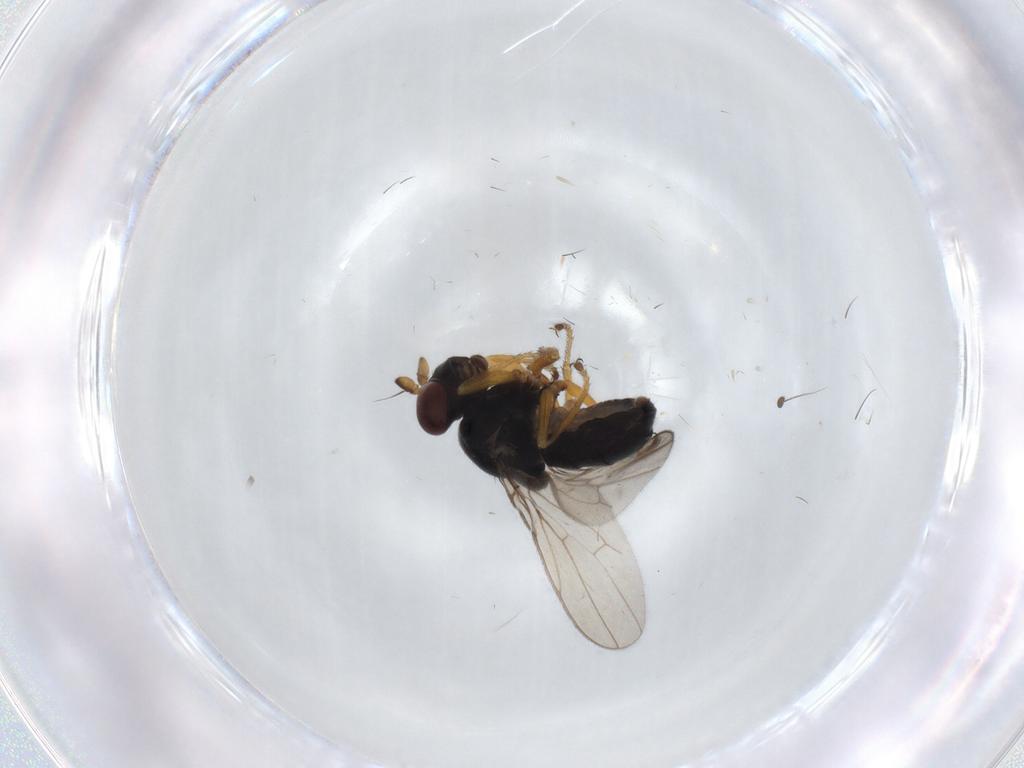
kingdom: Animalia
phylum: Arthropoda
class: Insecta
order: Diptera
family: Ephydridae
